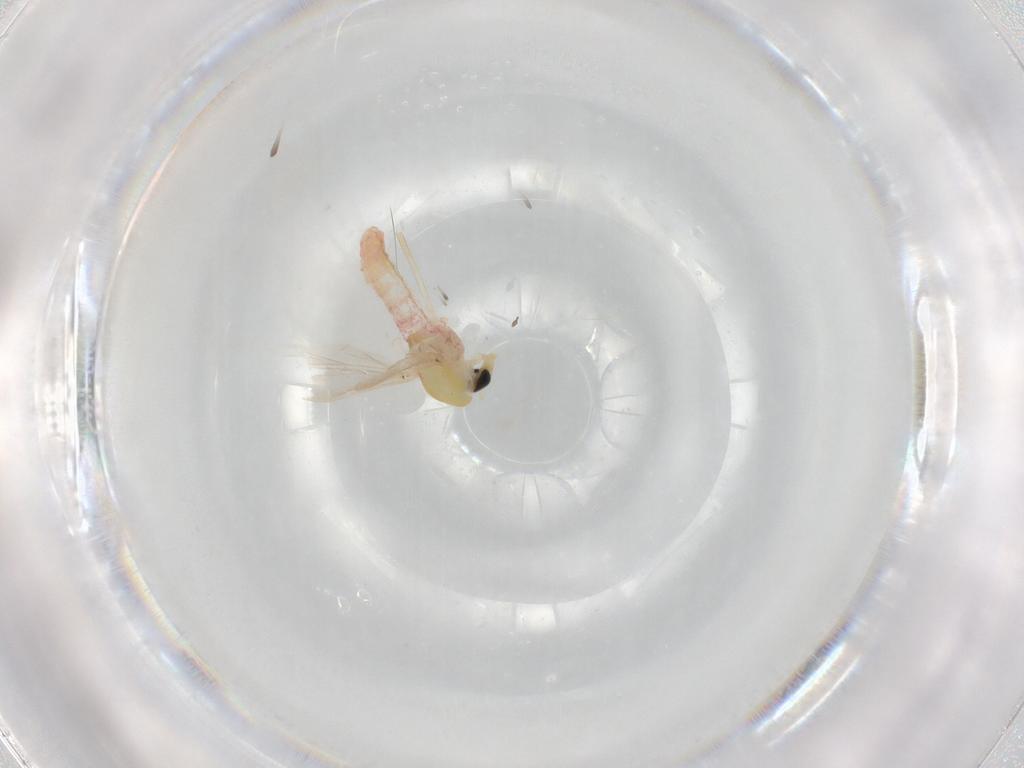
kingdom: Animalia
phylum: Arthropoda
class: Insecta
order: Diptera
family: Chironomidae
